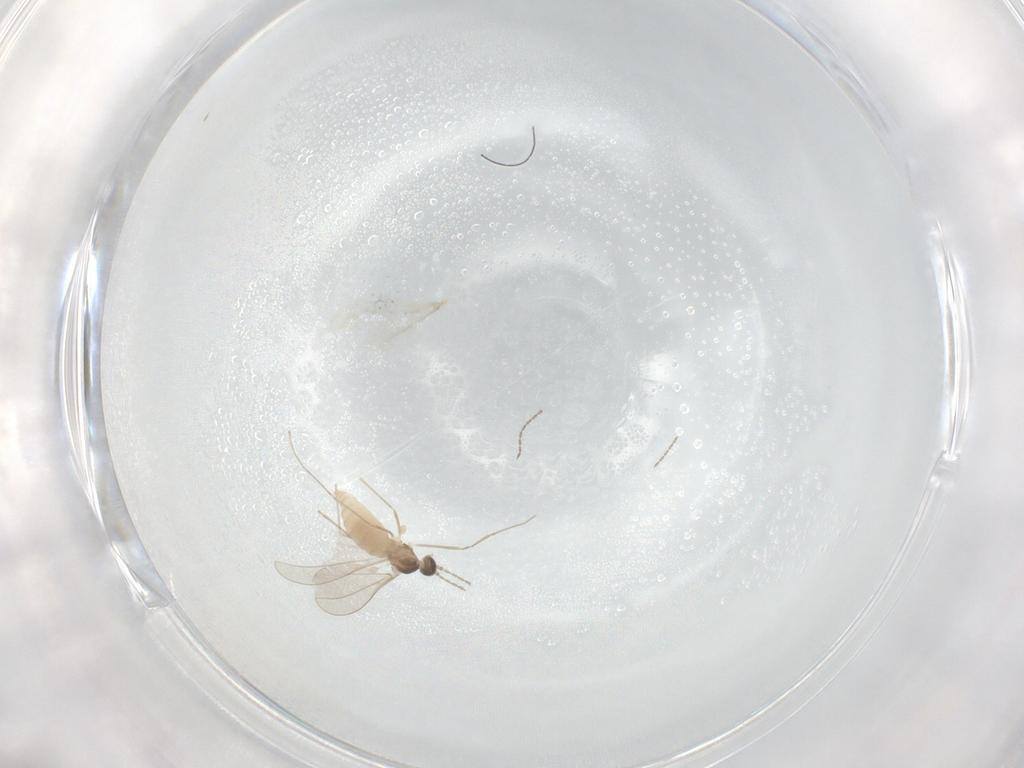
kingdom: Animalia
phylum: Arthropoda
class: Insecta
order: Diptera
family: Cecidomyiidae
